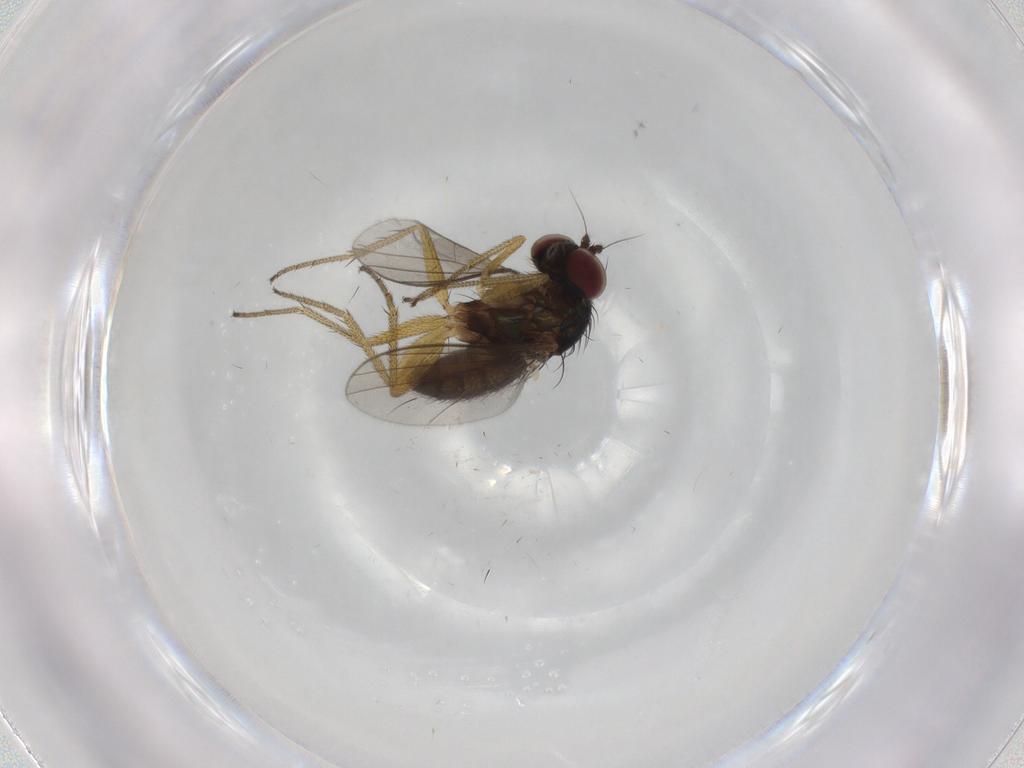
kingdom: Animalia
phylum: Arthropoda
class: Insecta
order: Diptera
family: Dolichopodidae
